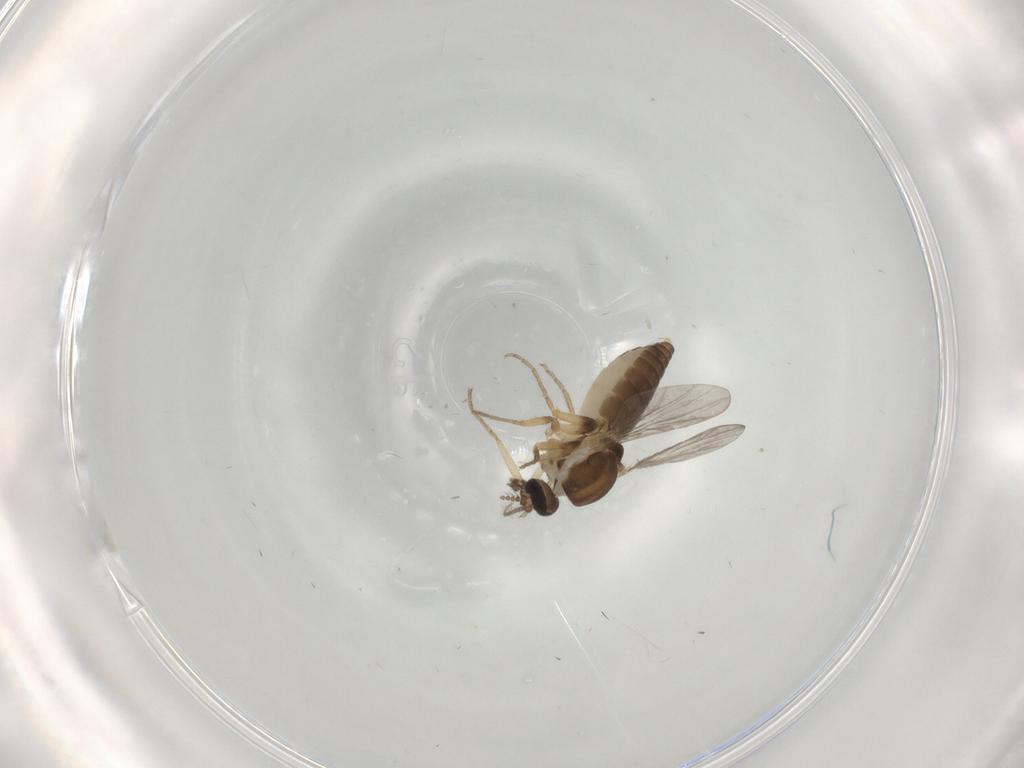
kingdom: Animalia
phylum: Arthropoda
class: Insecta
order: Diptera
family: Ceratopogonidae
